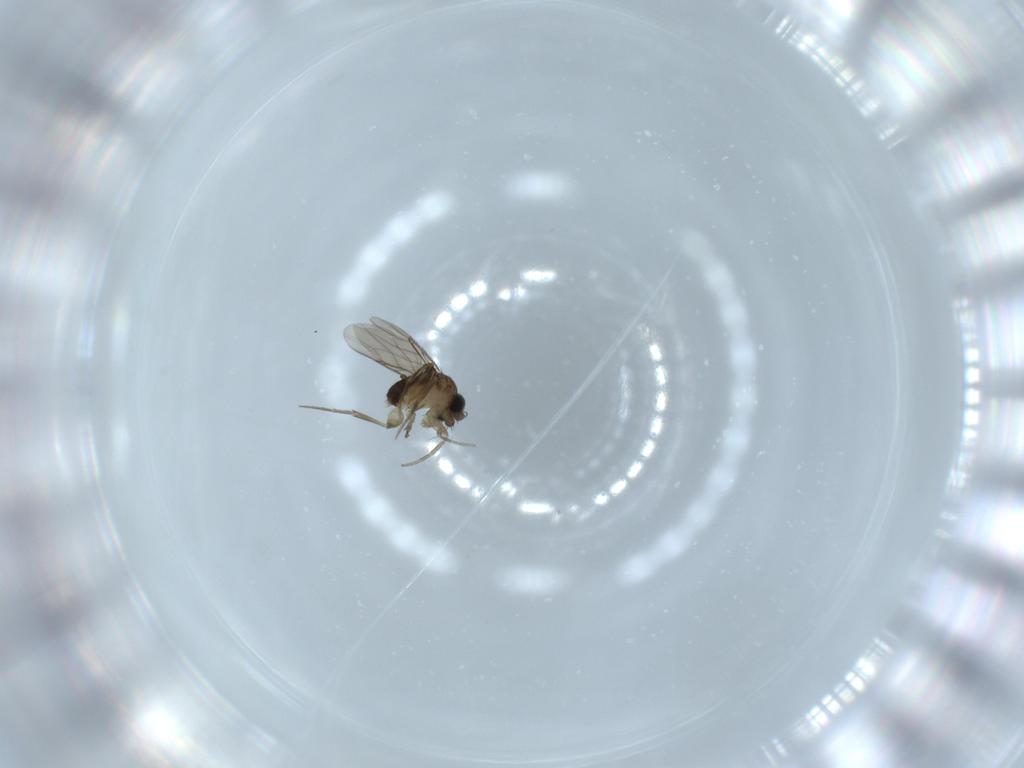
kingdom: Animalia
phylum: Arthropoda
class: Insecta
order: Diptera
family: Phoridae
